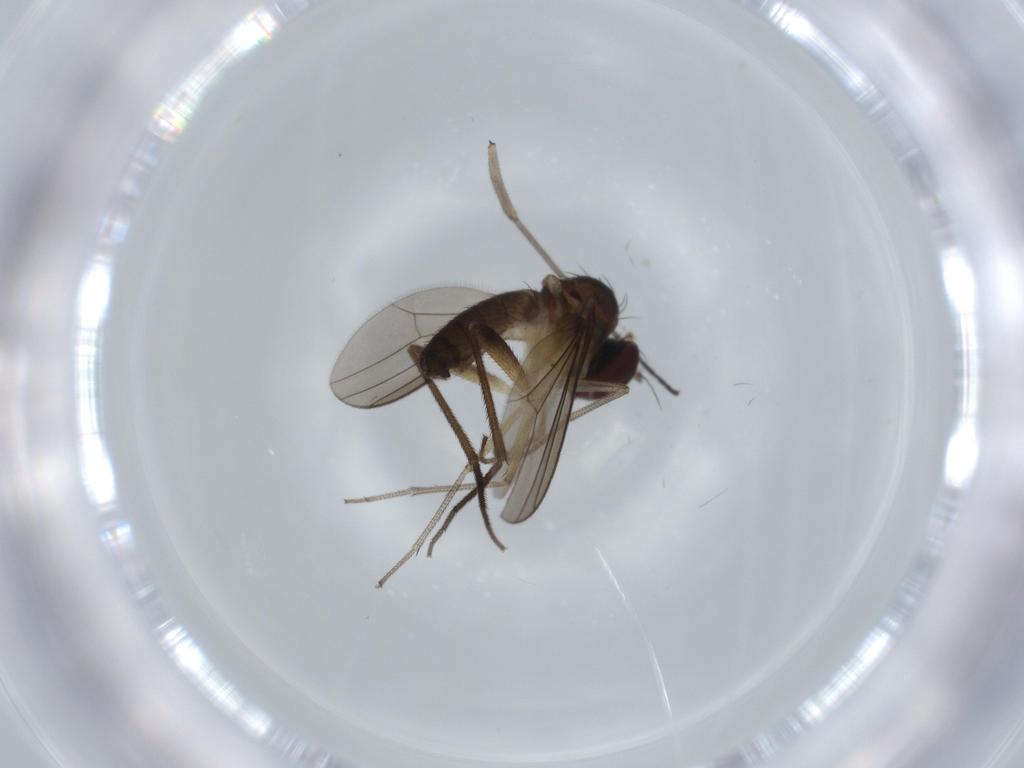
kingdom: Animalia
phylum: Arthropoda
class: Insecta
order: Diptera
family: Dolichopodidae
